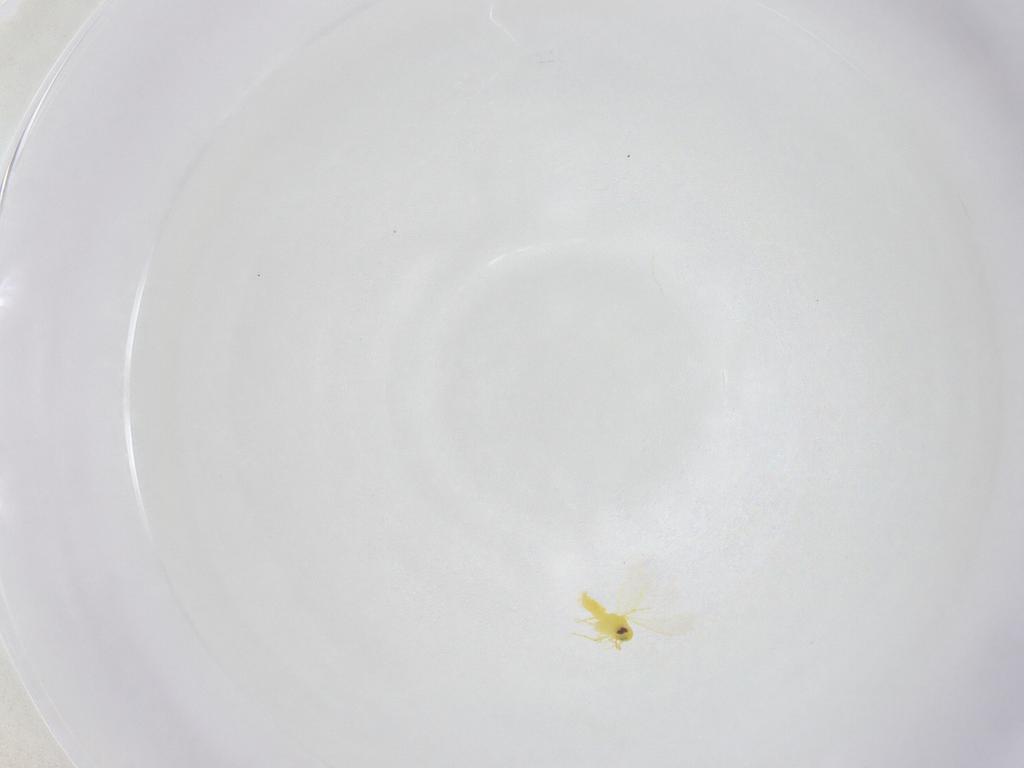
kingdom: Animalia
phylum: Arthropoda
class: Insecta
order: Hemiptera
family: Aleyrodidae
